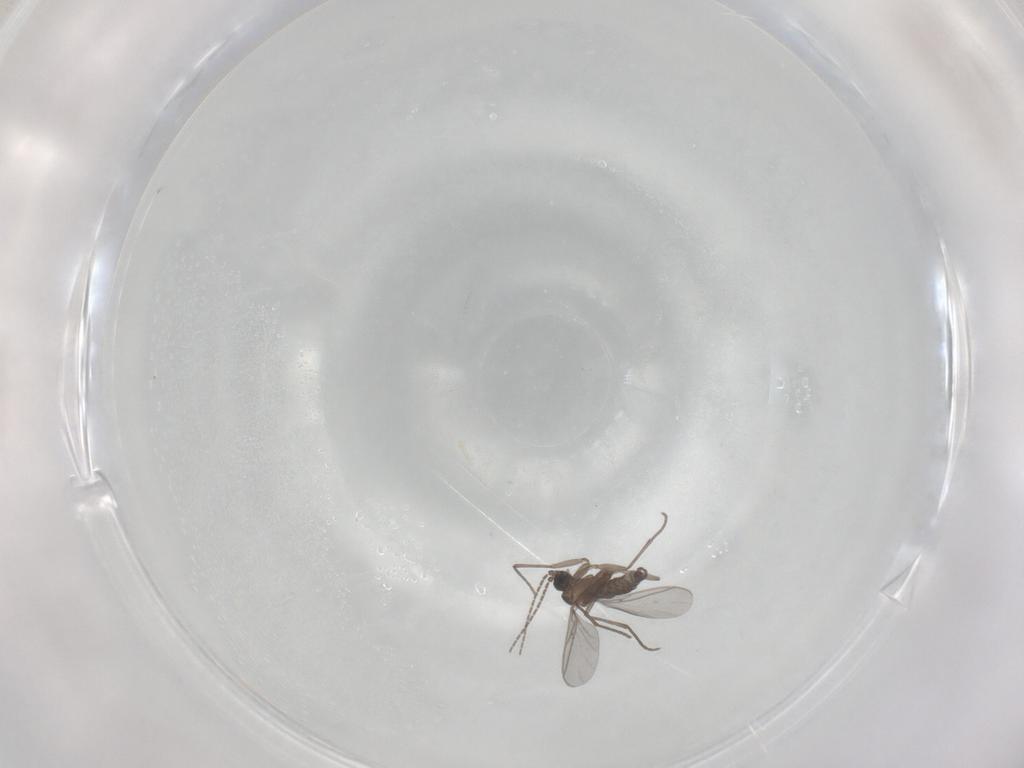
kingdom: Animalia
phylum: Arthropoda
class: Insecta
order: Diptera
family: Sciaridae
